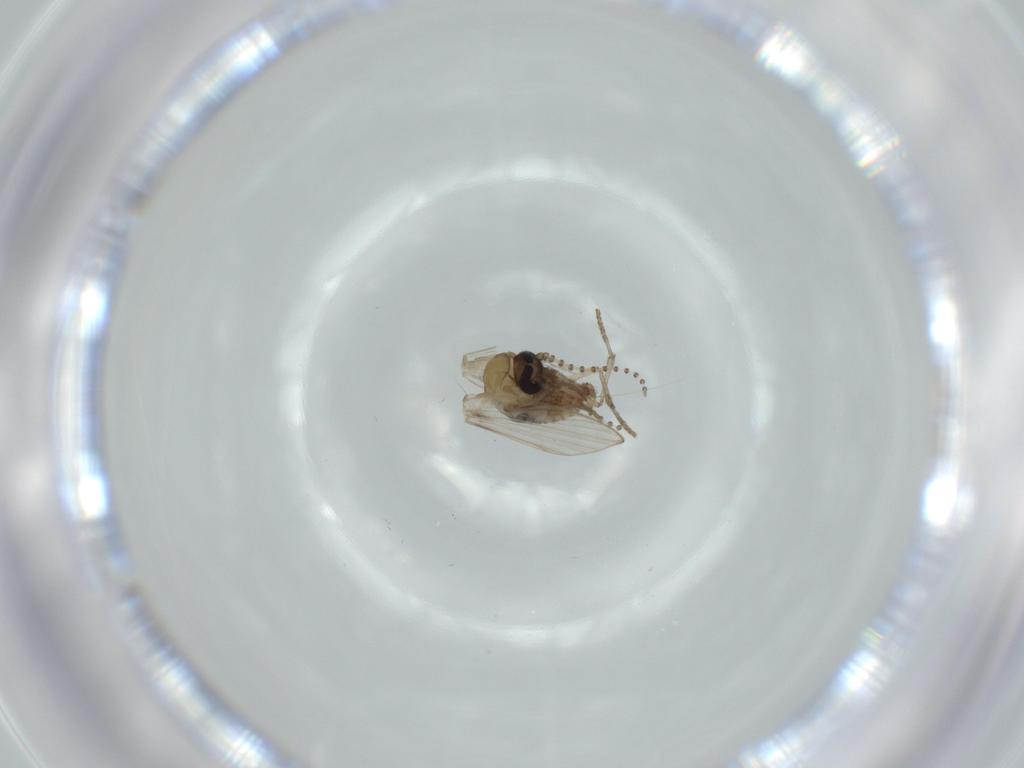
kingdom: Animalia
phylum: Arthropoda
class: Insecta
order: Diptera
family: Psychodidae
